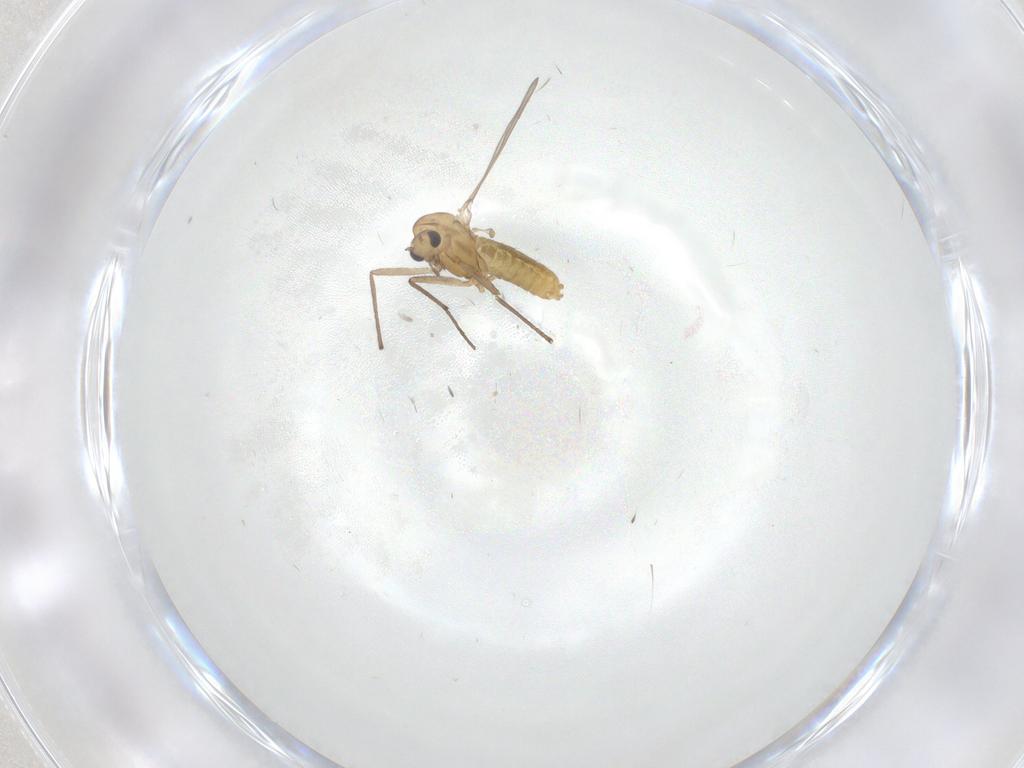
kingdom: Animalia
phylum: Arthropoda
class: Insecta
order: Diptera
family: Chironomidae
